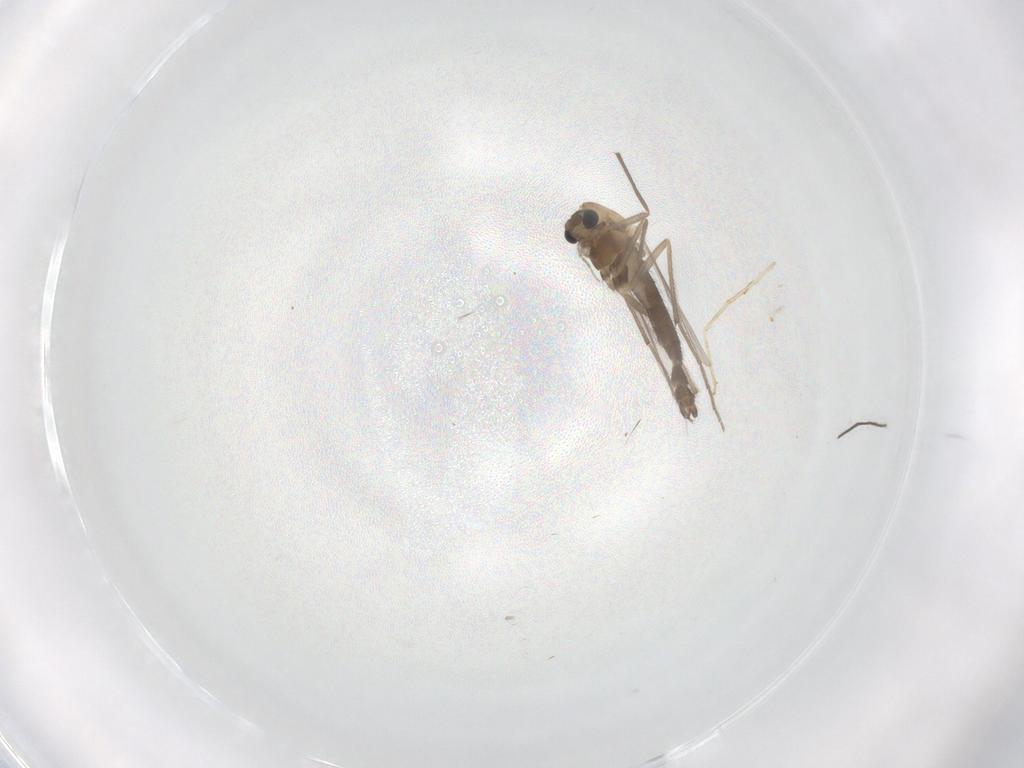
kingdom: Animalia
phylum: Arthropoda
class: Insecta
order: Diptera
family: Chironomidae
